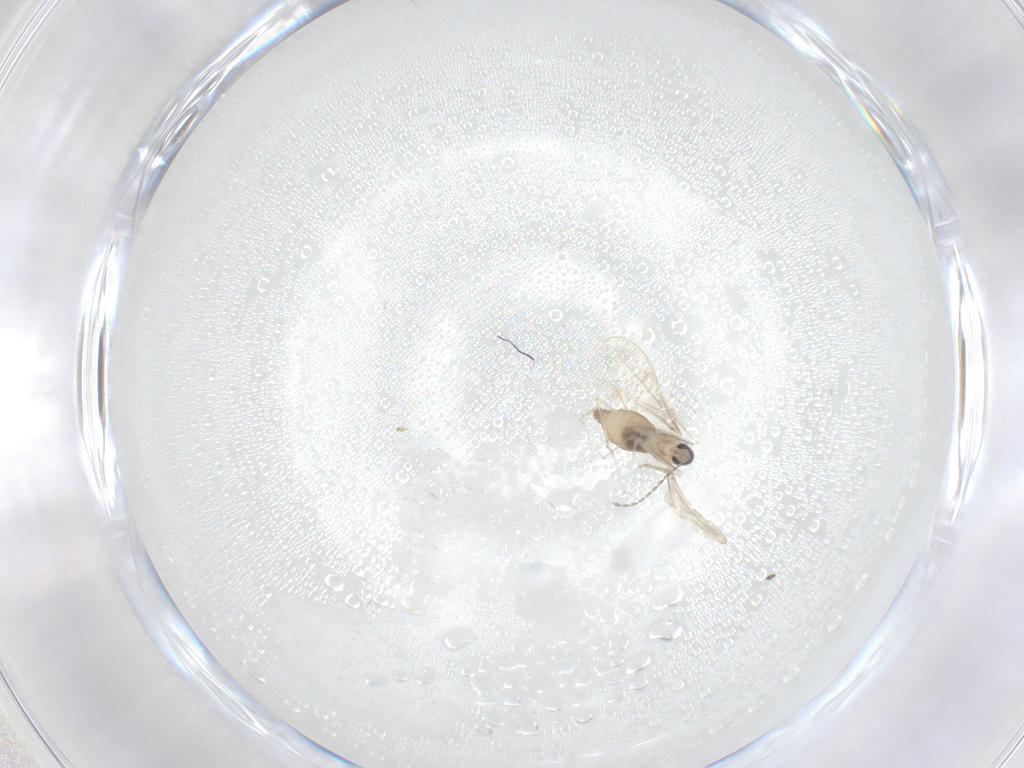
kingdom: Animalia
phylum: Arthropoda
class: Insecta
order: Diptera
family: Cecidomyiidae
